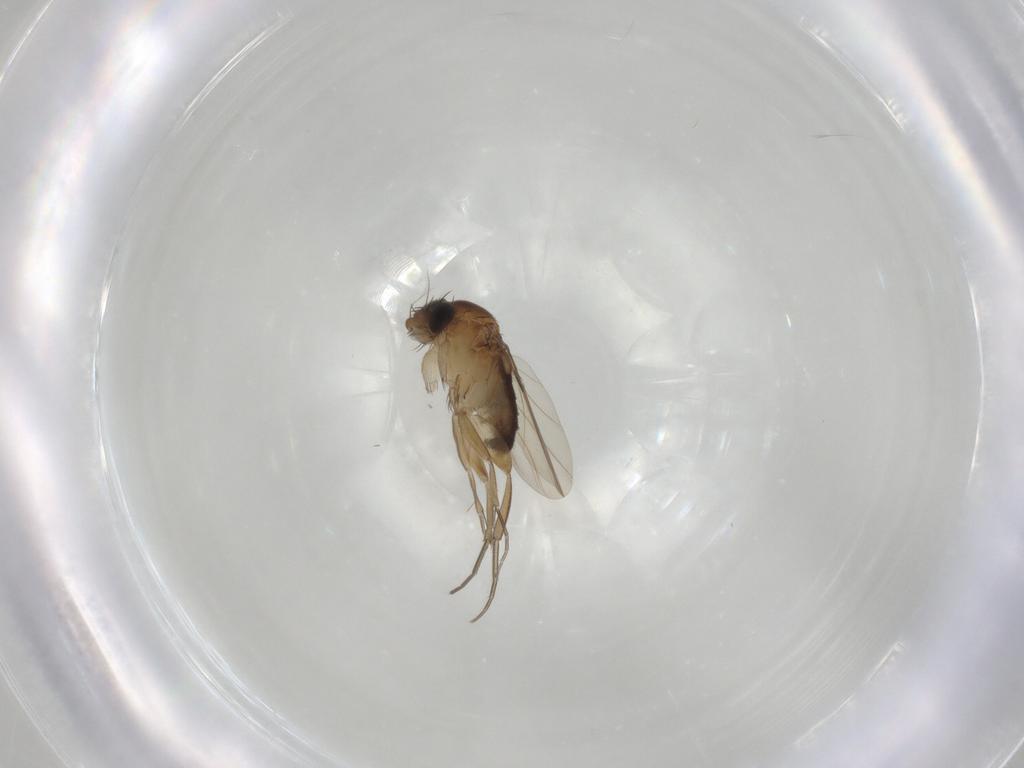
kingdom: Animalia
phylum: Arthropoda
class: Insecta
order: Diptera
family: Phoridae
